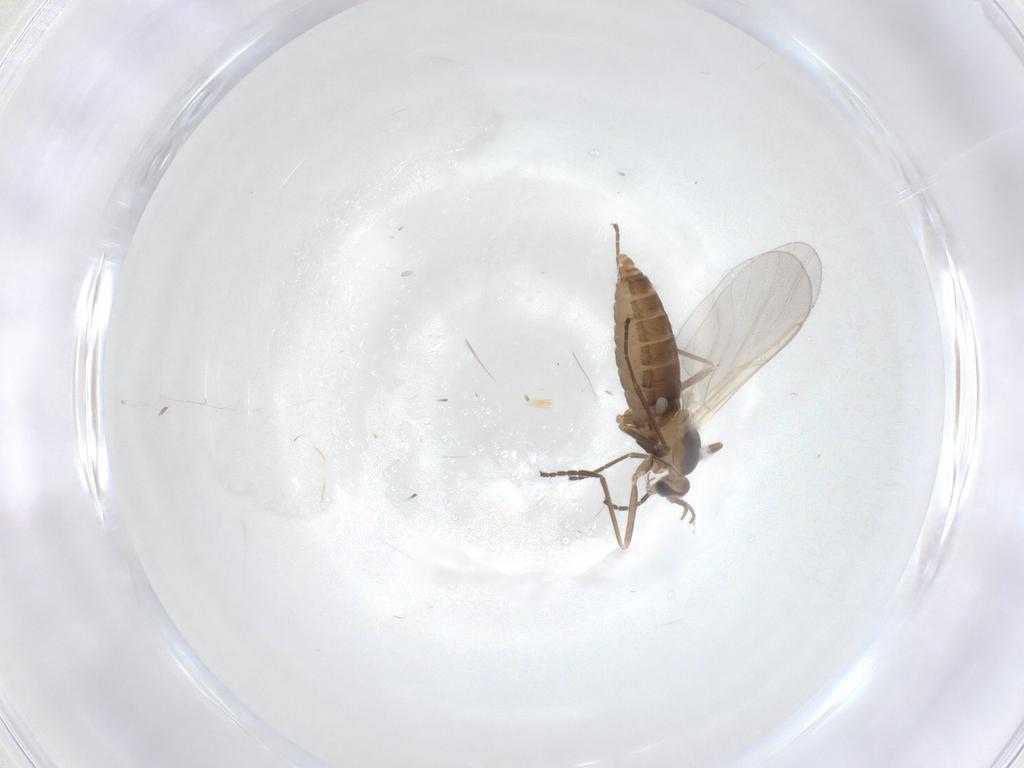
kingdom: Animalia
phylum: Arthropoda
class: Insecta
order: Diptera
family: Cecidomyiidae
